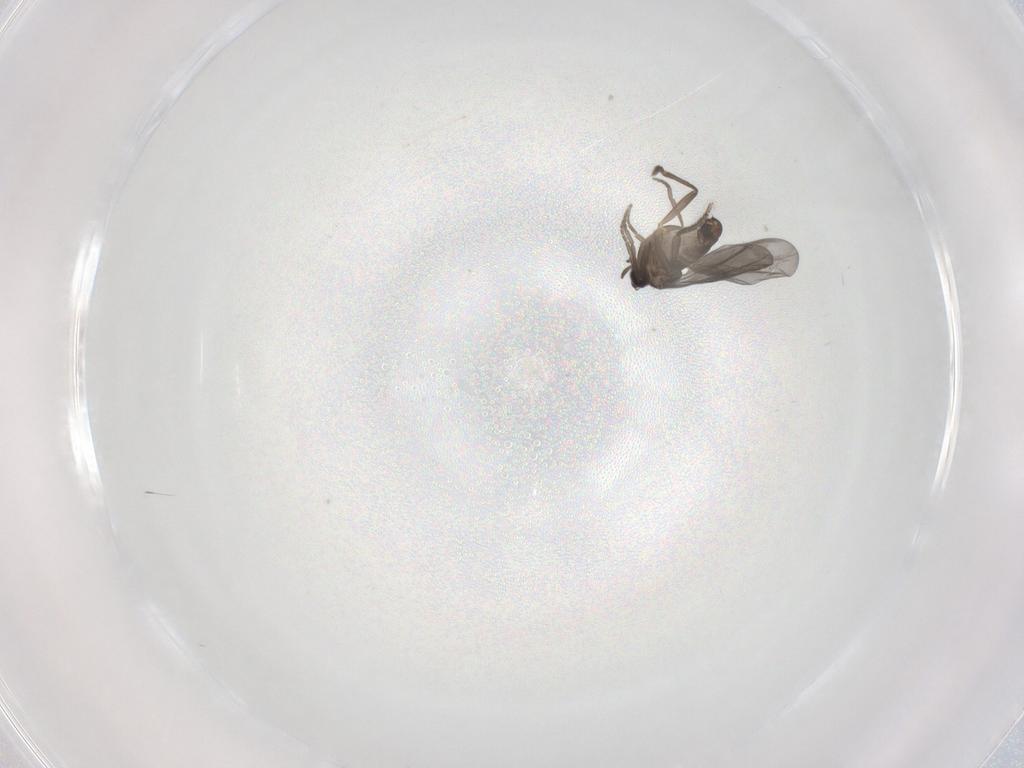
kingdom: Animalia
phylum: Arthropoda
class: Insecta
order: Diptera
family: Phoridae
